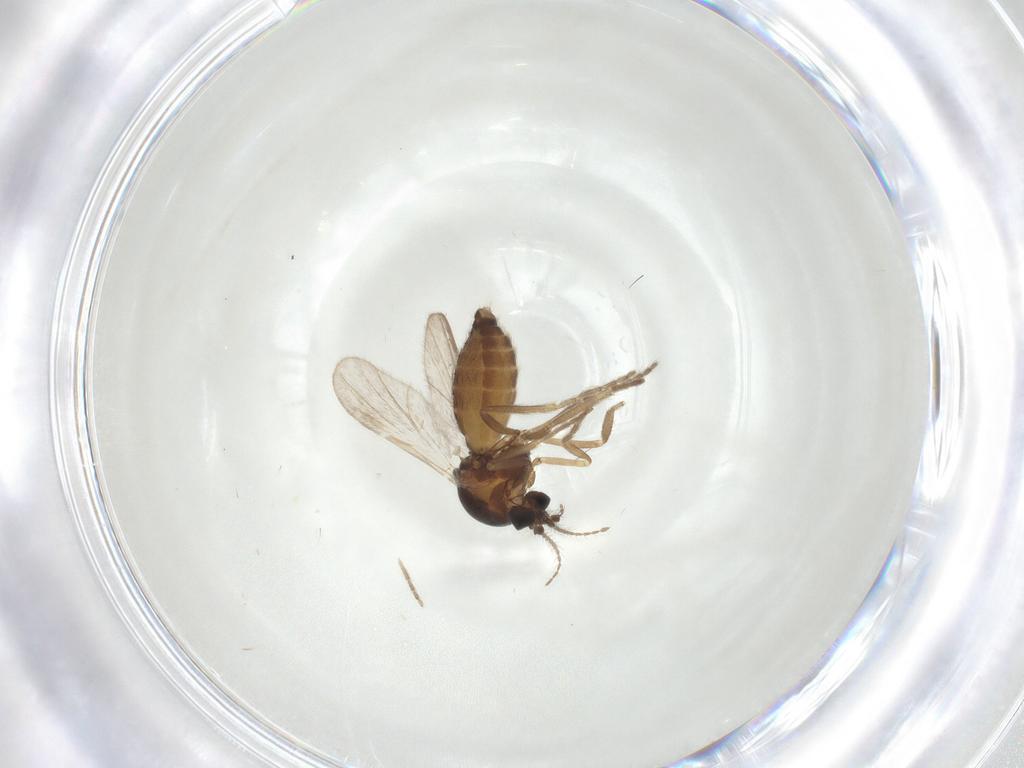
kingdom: Animalia
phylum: Arthropoda
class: Insecta
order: Diptera
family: Ceratopogonidae
